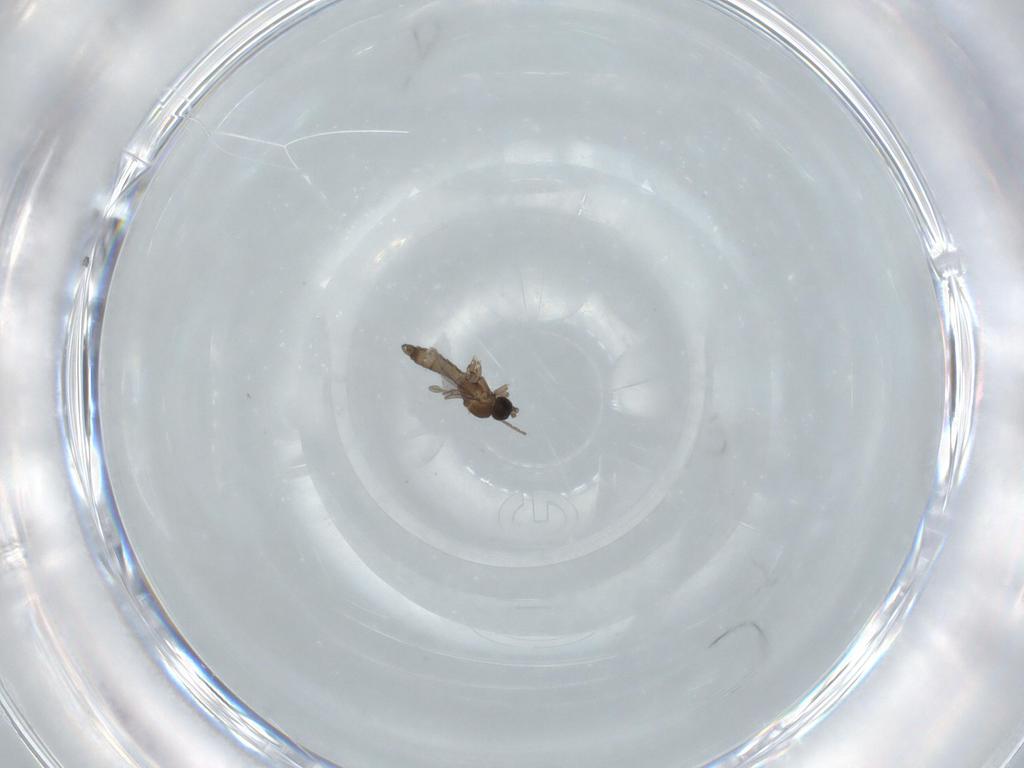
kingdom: Animalia
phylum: Arthropoda
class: Insecta
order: Diptera
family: Sciaridae
